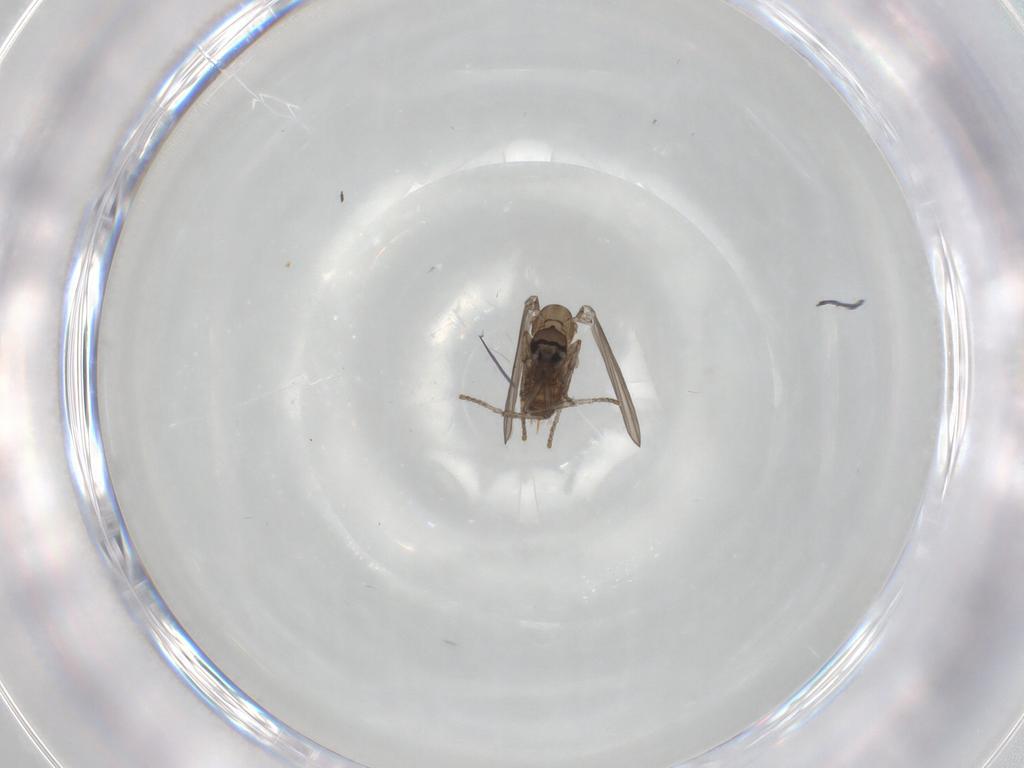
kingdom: Animalia
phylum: Arthropoda
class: Insecta
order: Diptera
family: Psychodidae
